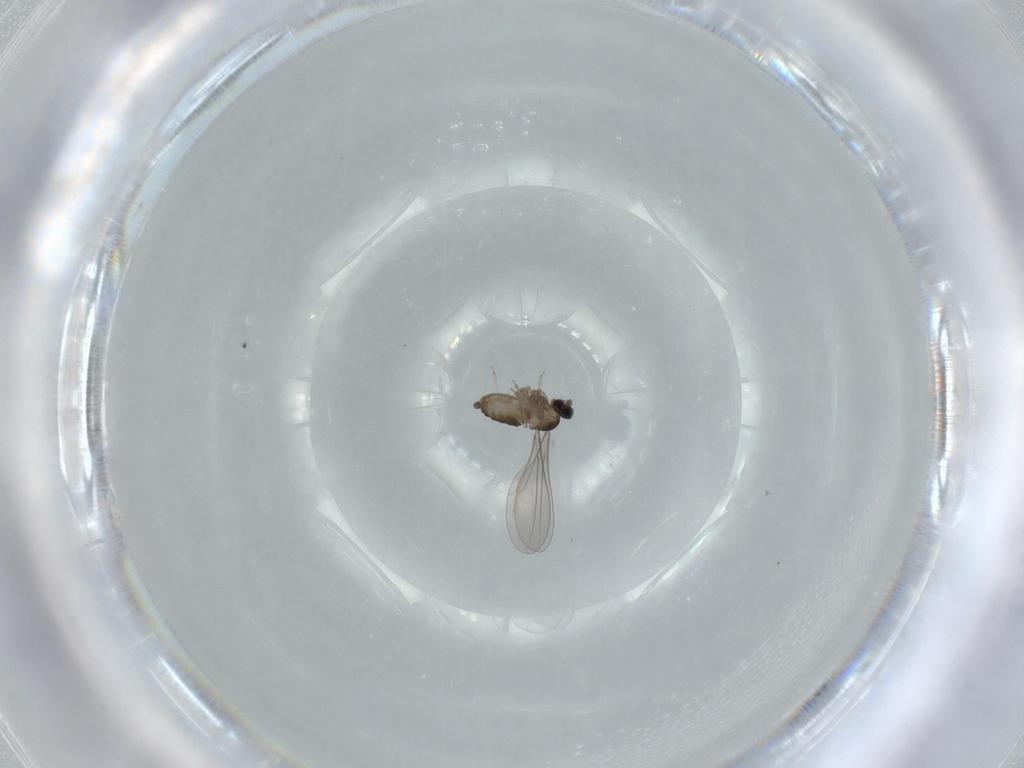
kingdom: Animalia
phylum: Arthropoda
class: Insecta
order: Diptera
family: Cecidomyiidae
